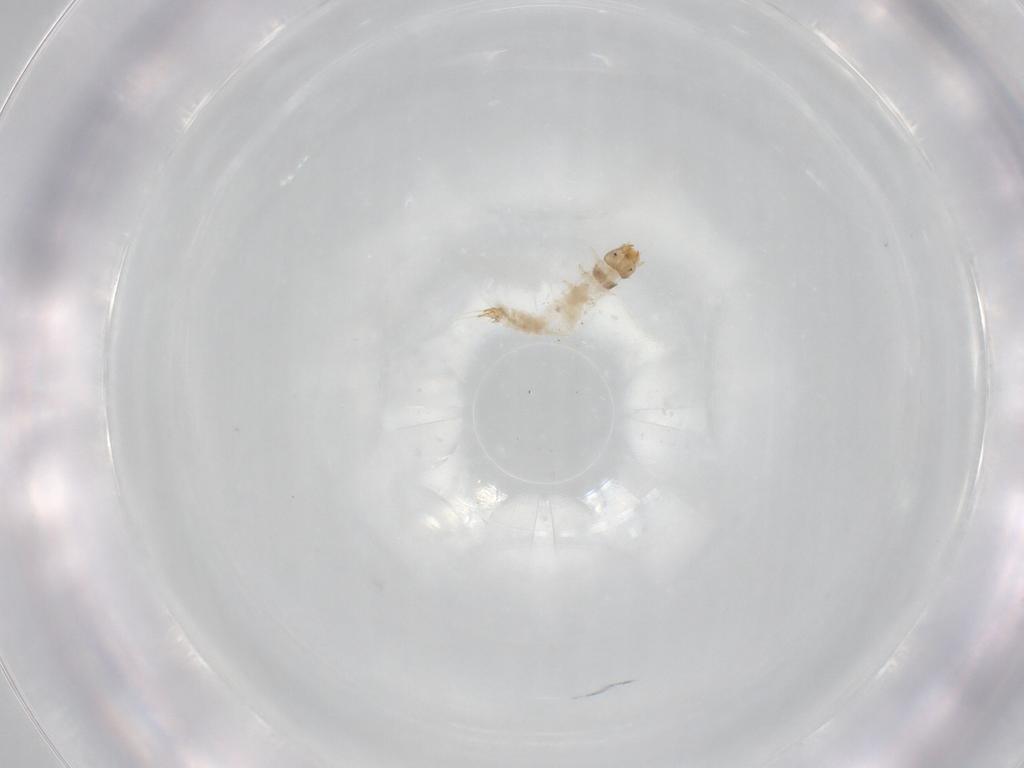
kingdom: Animalia
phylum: Arthropoda
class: Insecta
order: Coleoptera
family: Nitidulidae
